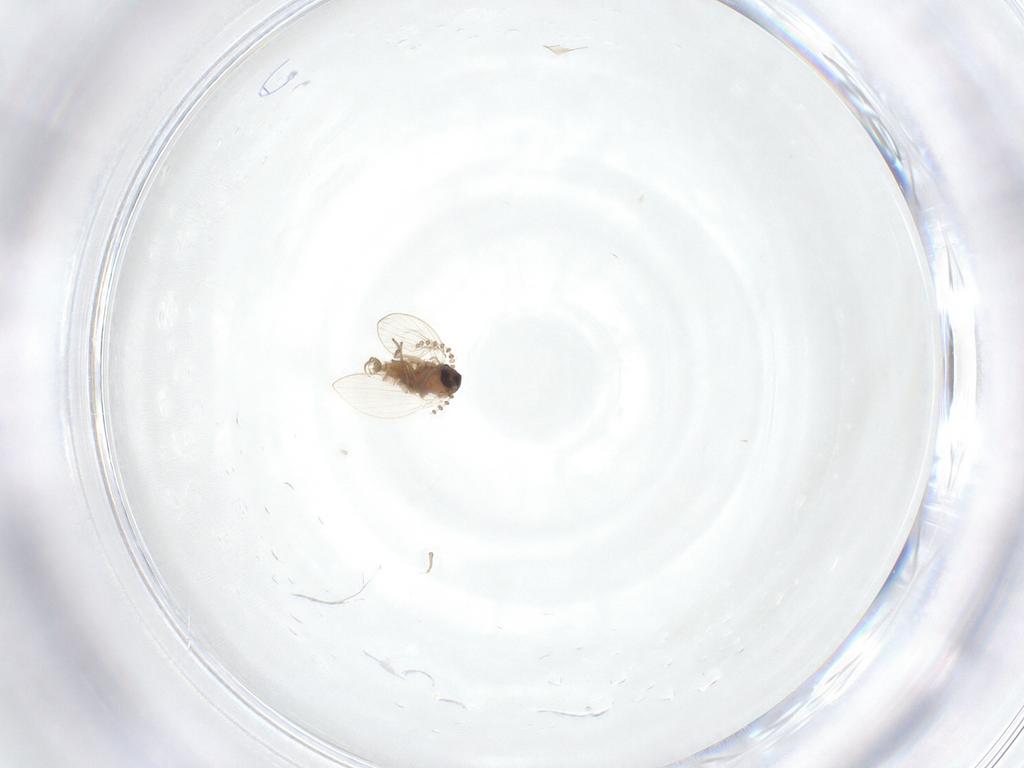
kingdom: Animalia
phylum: Arthropoda
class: Insecta
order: Diptera
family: Psychodidae
